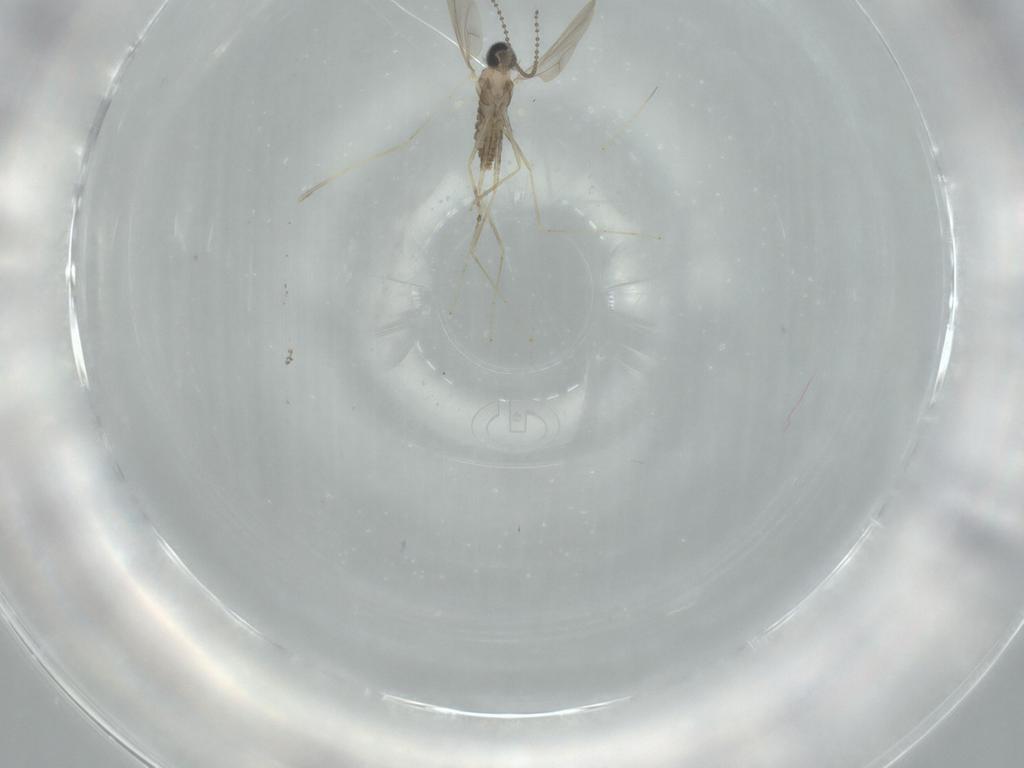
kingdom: Animalia
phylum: Arthropoda
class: Insecta
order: Diptera
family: Cecidomyiidae
